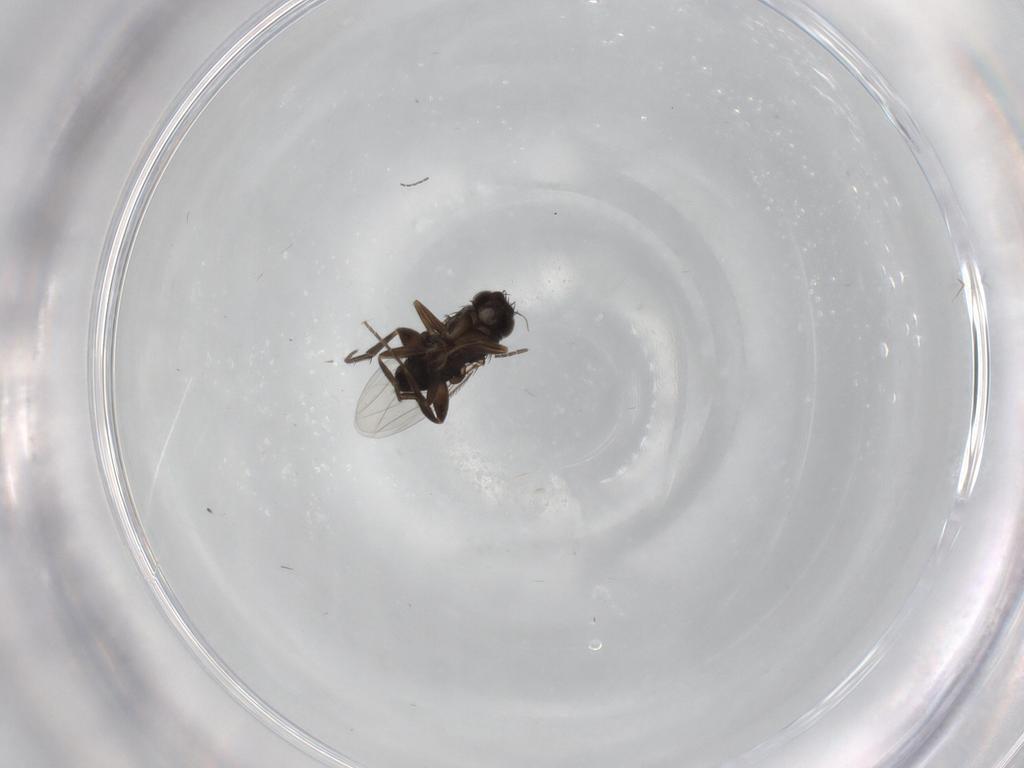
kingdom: Animalia
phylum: Arthropoda
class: Insecta
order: Diptera
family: Phoridae
